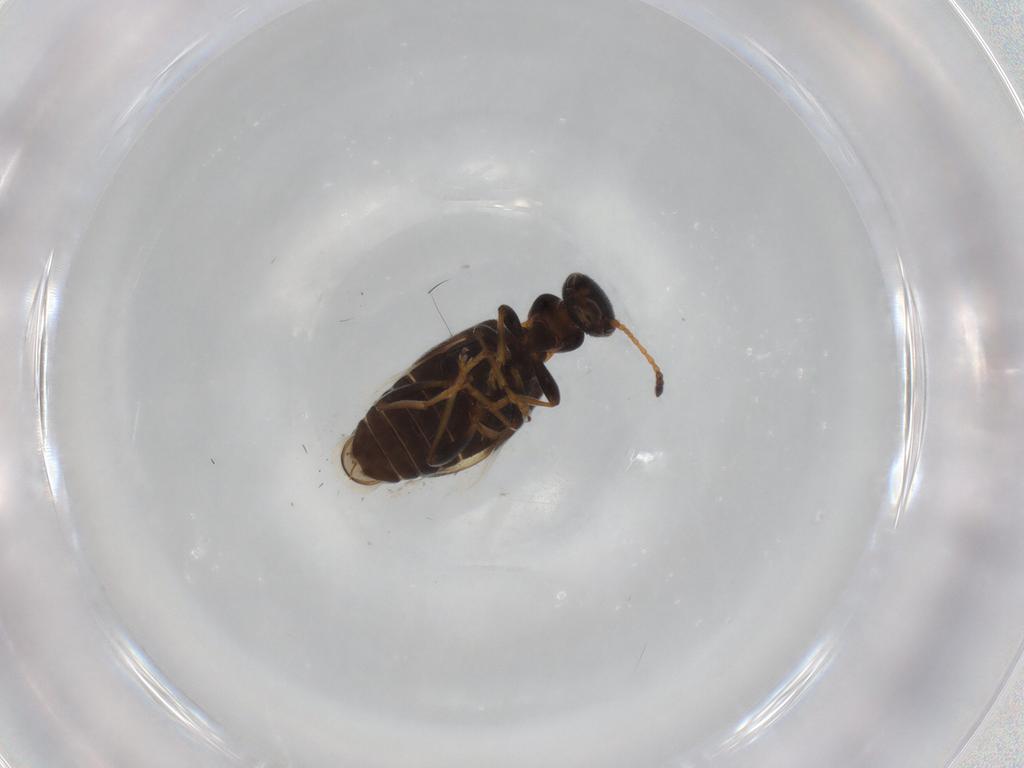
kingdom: Animalia
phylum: Arthropoda
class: Insecta
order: Coleoptera
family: Anthicidae
